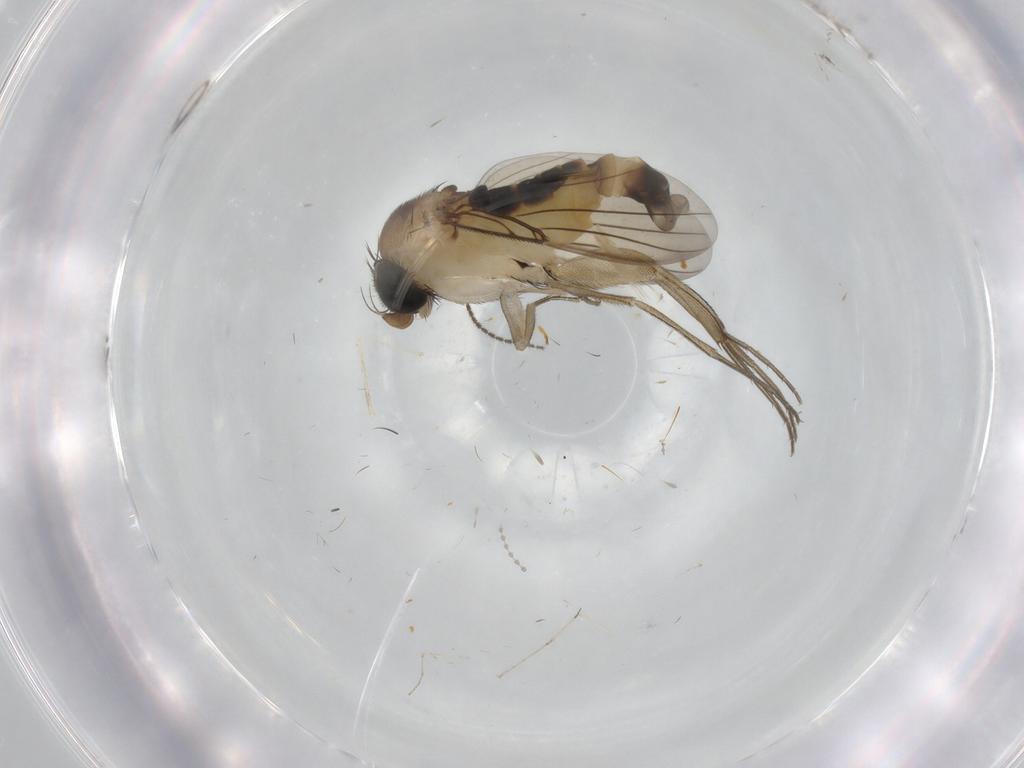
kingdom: Animalia
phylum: Arthropoda
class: Insecta
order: Diptera
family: Phoridae
